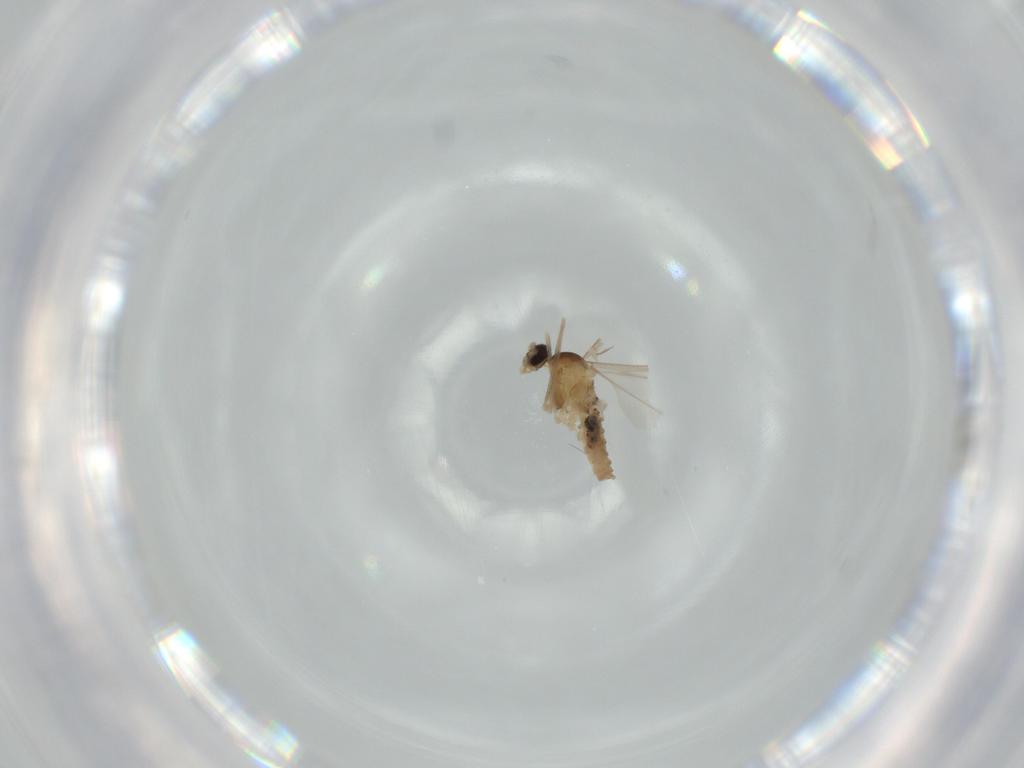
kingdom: Animalia
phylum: Arthropoda
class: Insecta
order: Diptera
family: Cecidomyiidae
